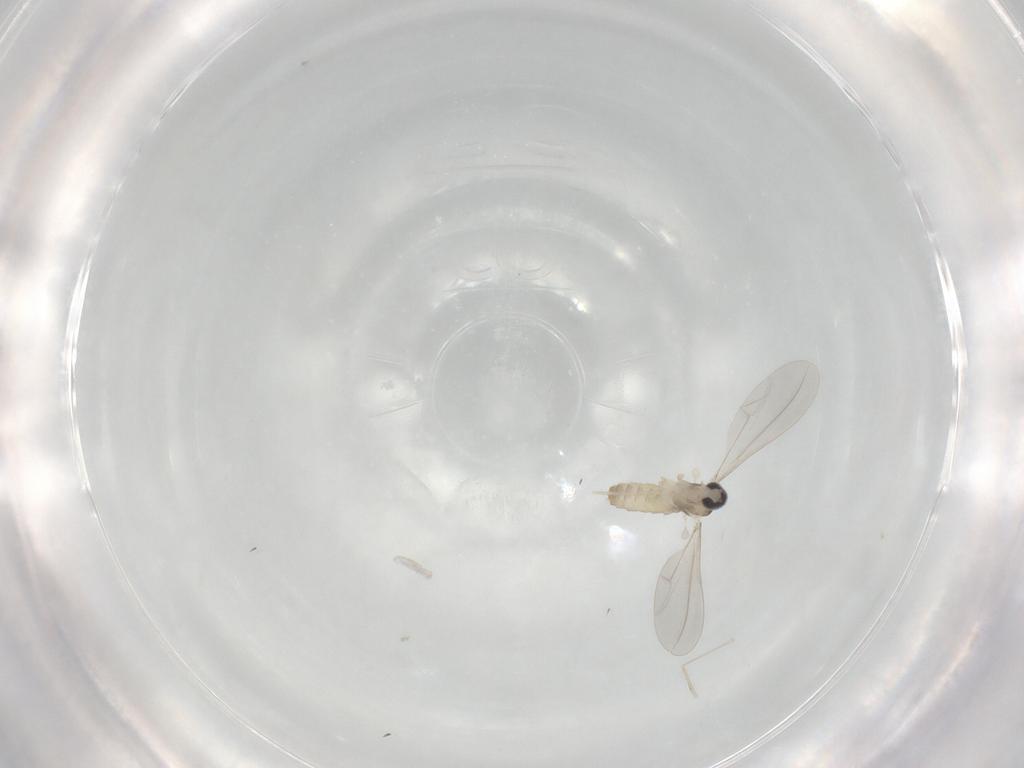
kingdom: Animalia
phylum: Arthropoda
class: Insecta
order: Diptera
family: Cecidomyiidae
